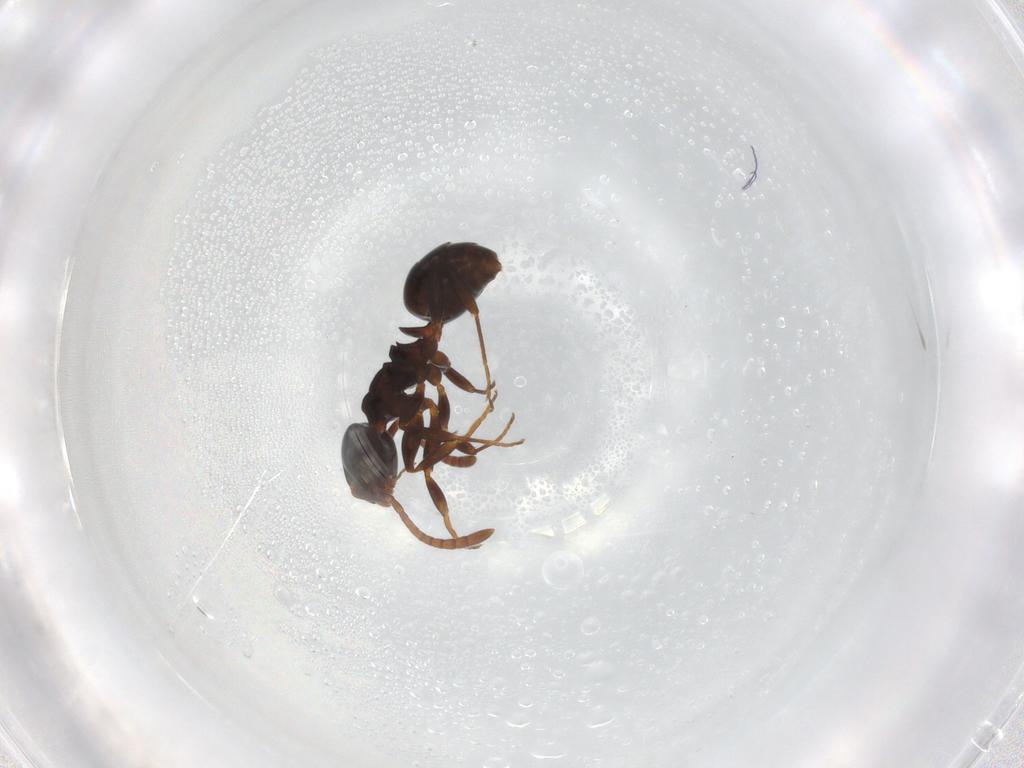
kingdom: Animalia
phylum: Arthropoda
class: Insecta
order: Hymenoptera
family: Formicidae
